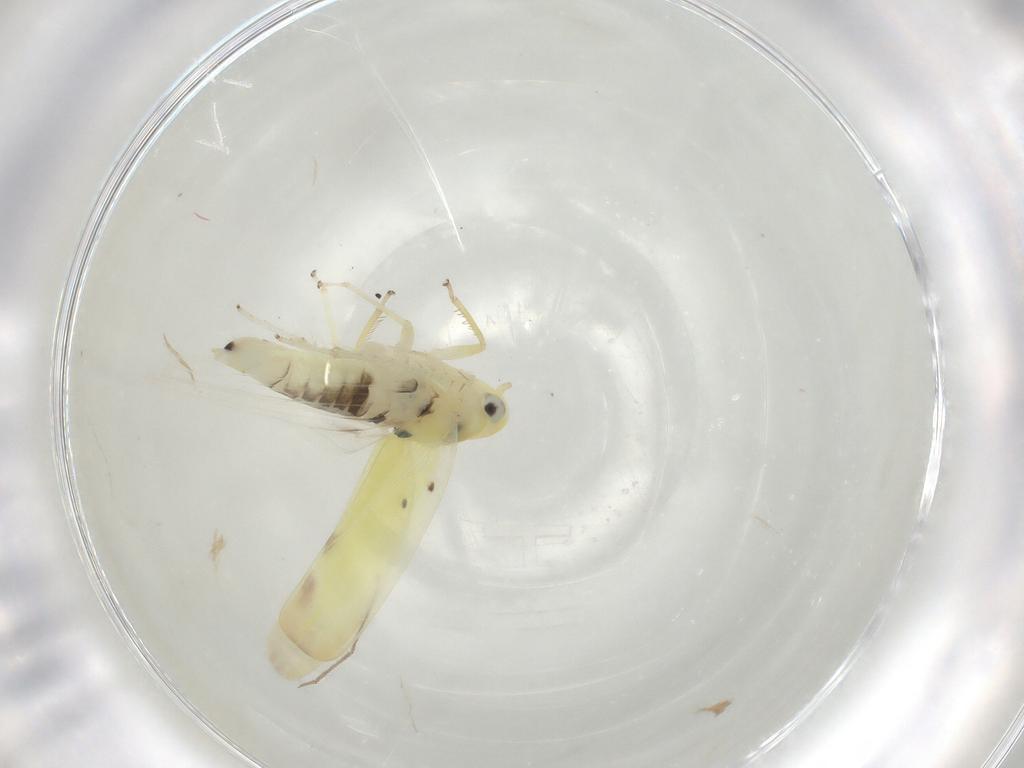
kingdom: Animalia
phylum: Arthropoda
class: Insecta
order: Hemiptera
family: Cicadellidae
